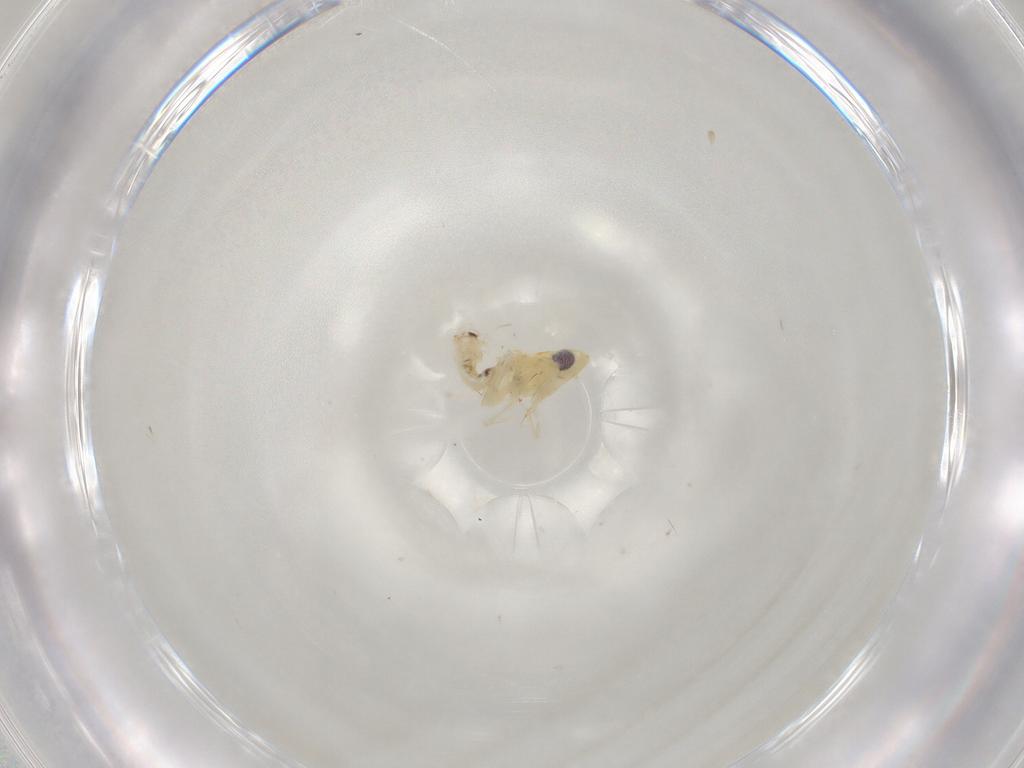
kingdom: Animalia
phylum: Arthropoda
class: Insecta
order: Hemiptera
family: Cicadellidae
